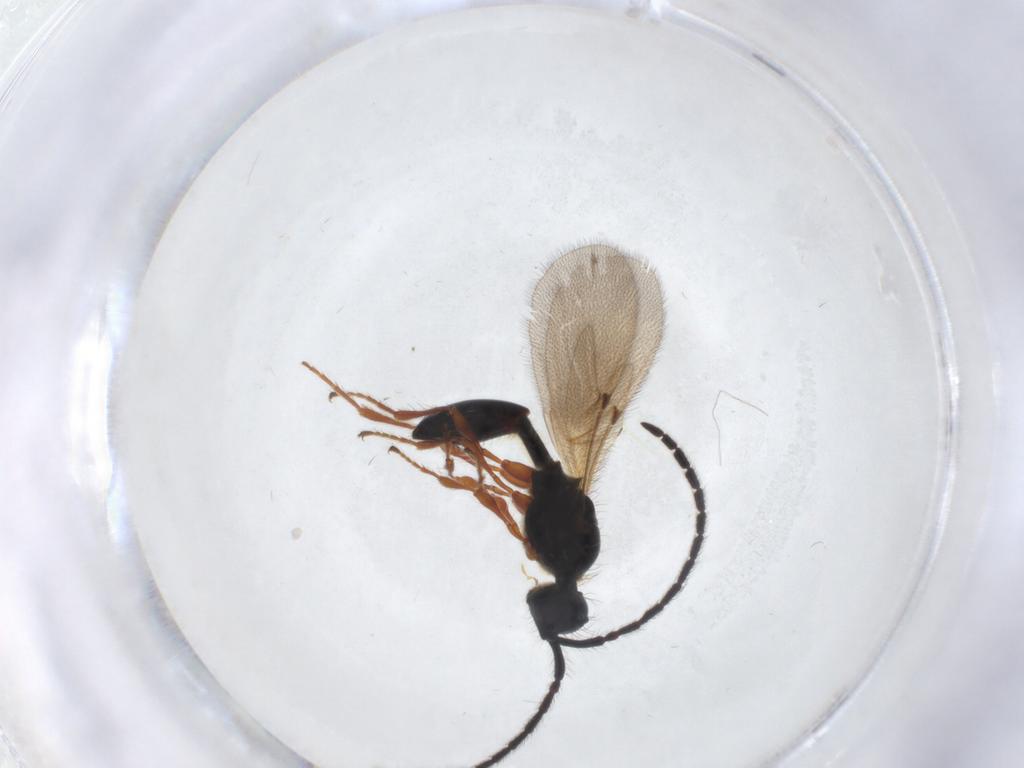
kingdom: Animalia
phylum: Arthropoda
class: Insecta
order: Hymenoptera
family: Diapriidae
